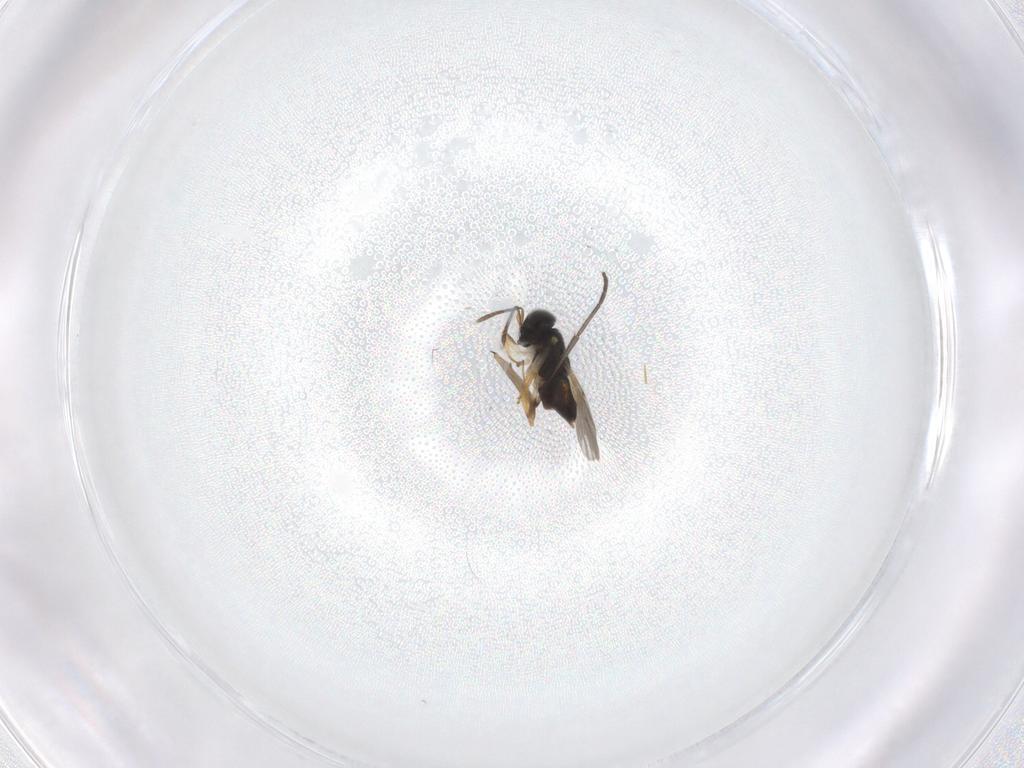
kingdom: Animalia
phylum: Arthropoda
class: Insecta
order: Hymenoptera
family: Encyrtidae
